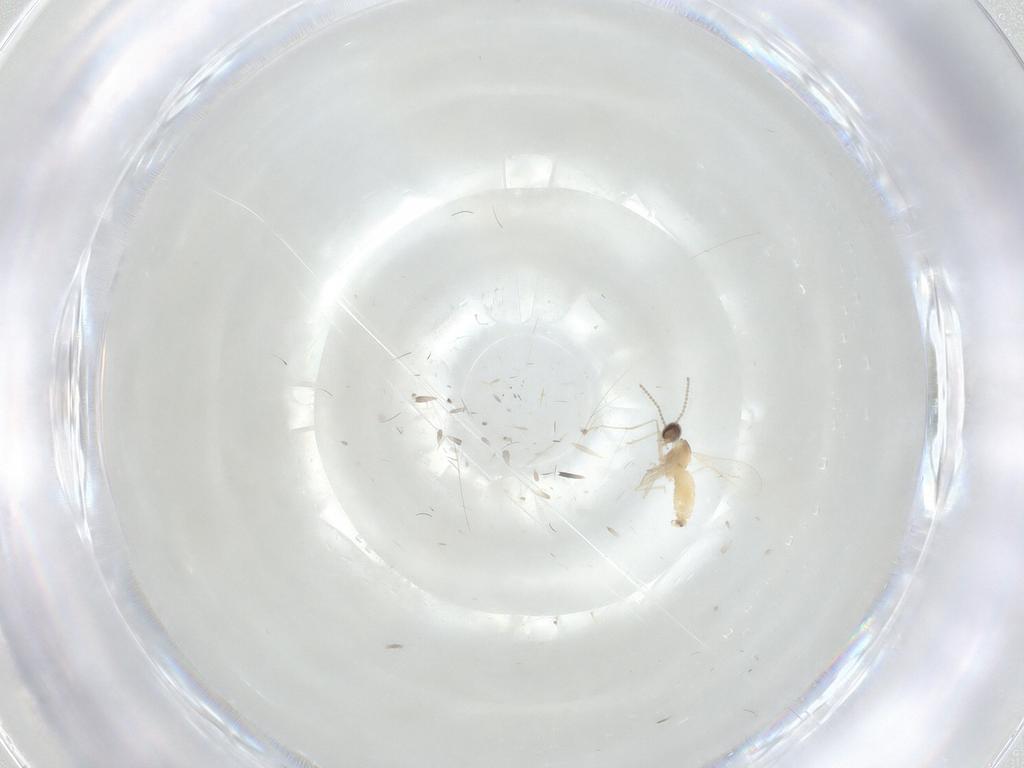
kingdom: Animalia
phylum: Arthropoda
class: Insecta
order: Diptera
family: Cecidomyiidae
